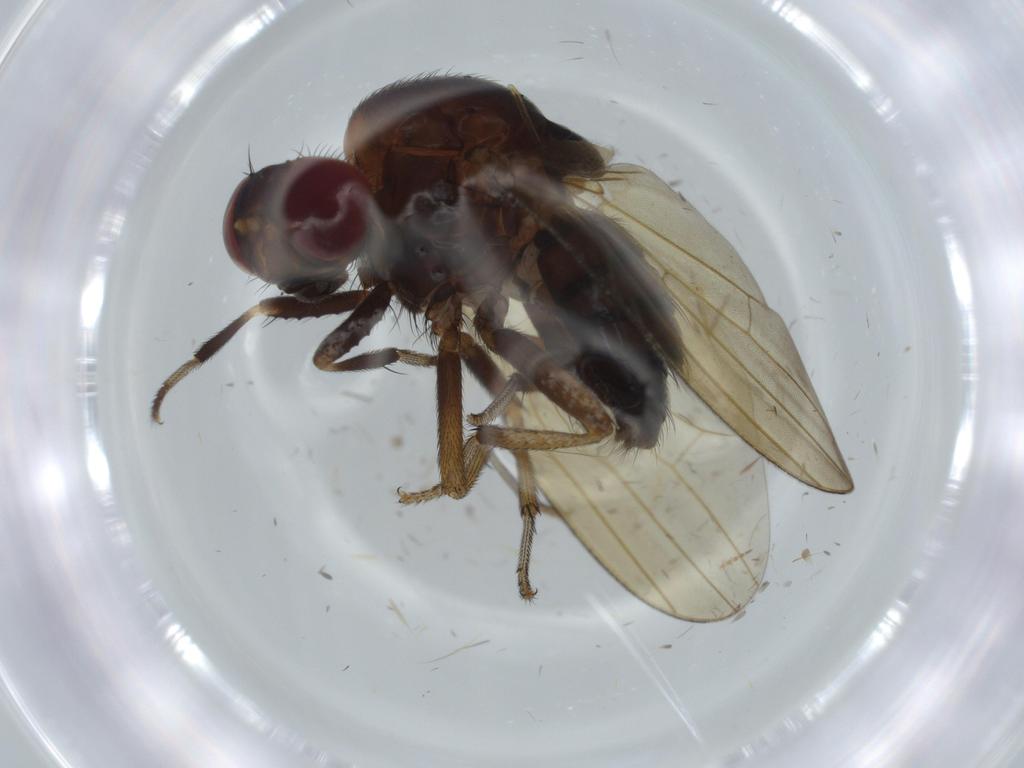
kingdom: Animalia
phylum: Arthropoda
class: Insecta
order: Diptera
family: Chironomidae
